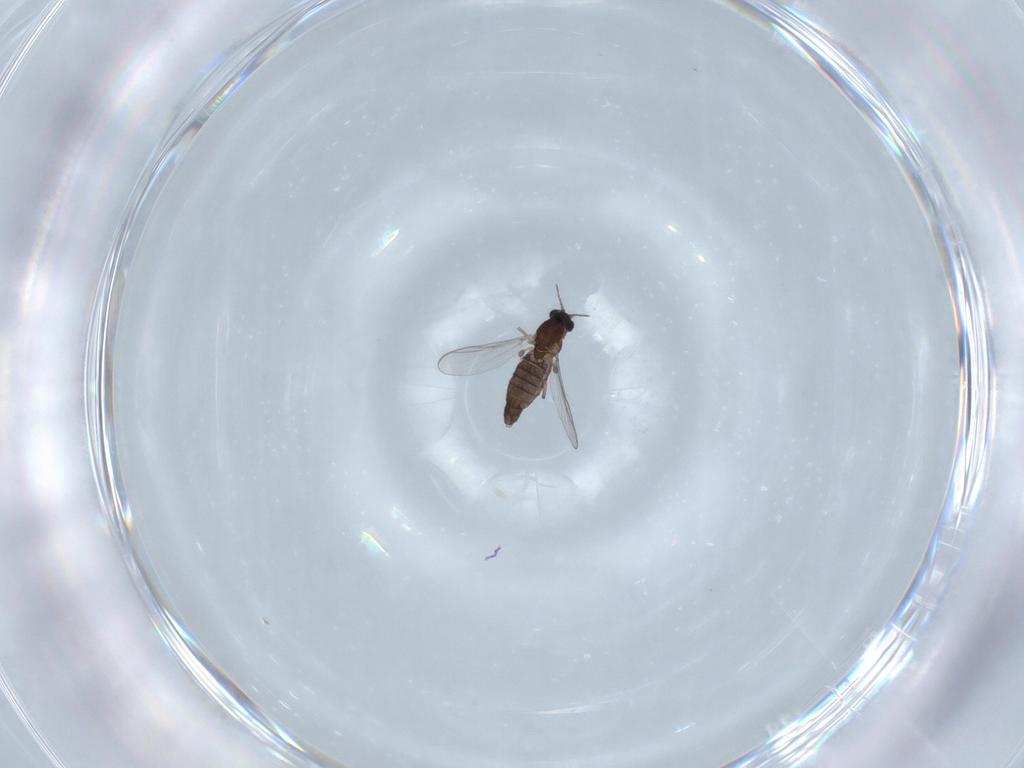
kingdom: Animalia
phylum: Arthropoda
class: Insecta
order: Diptera
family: Chironomidae
